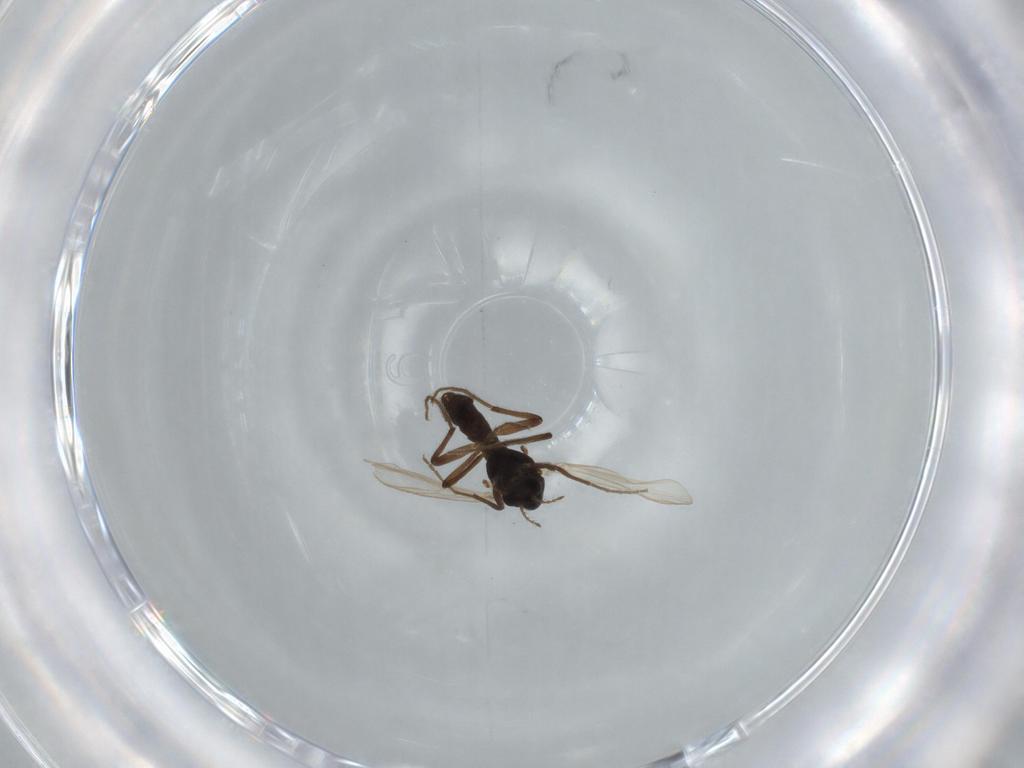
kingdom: Animalia
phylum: Arthropoda
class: Insecta
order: Diptera
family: Chironomidae
